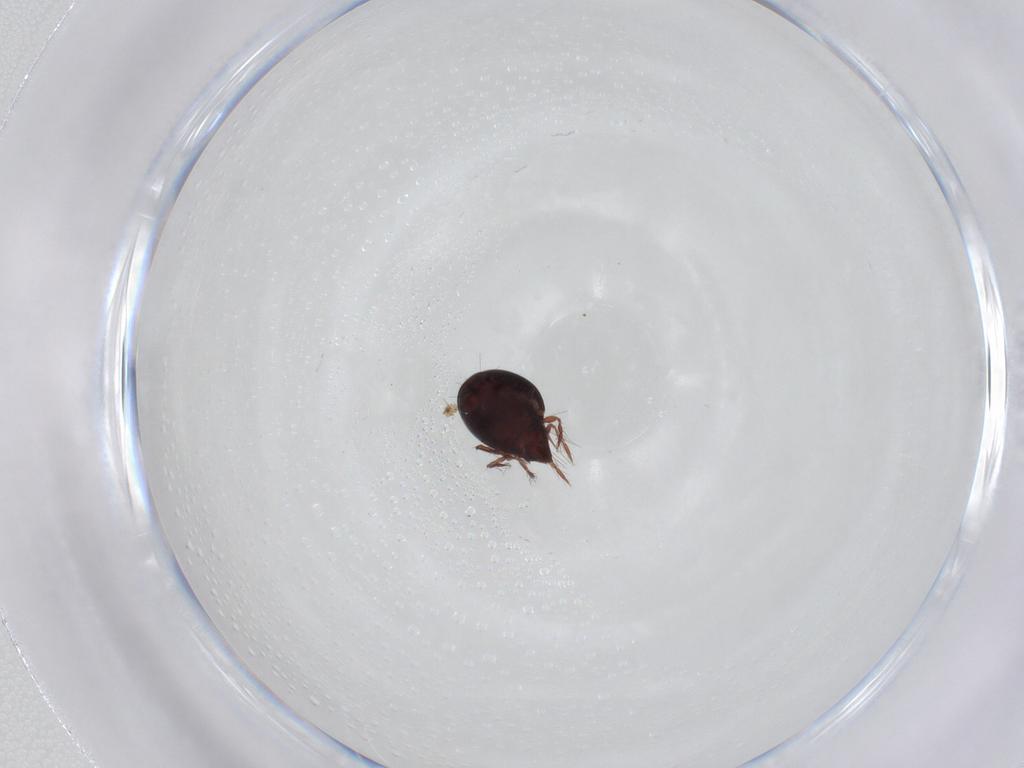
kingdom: Animalia
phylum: Arthropoda
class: Arachnida
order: Sarcoptiformes
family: Ceratoppiidae
